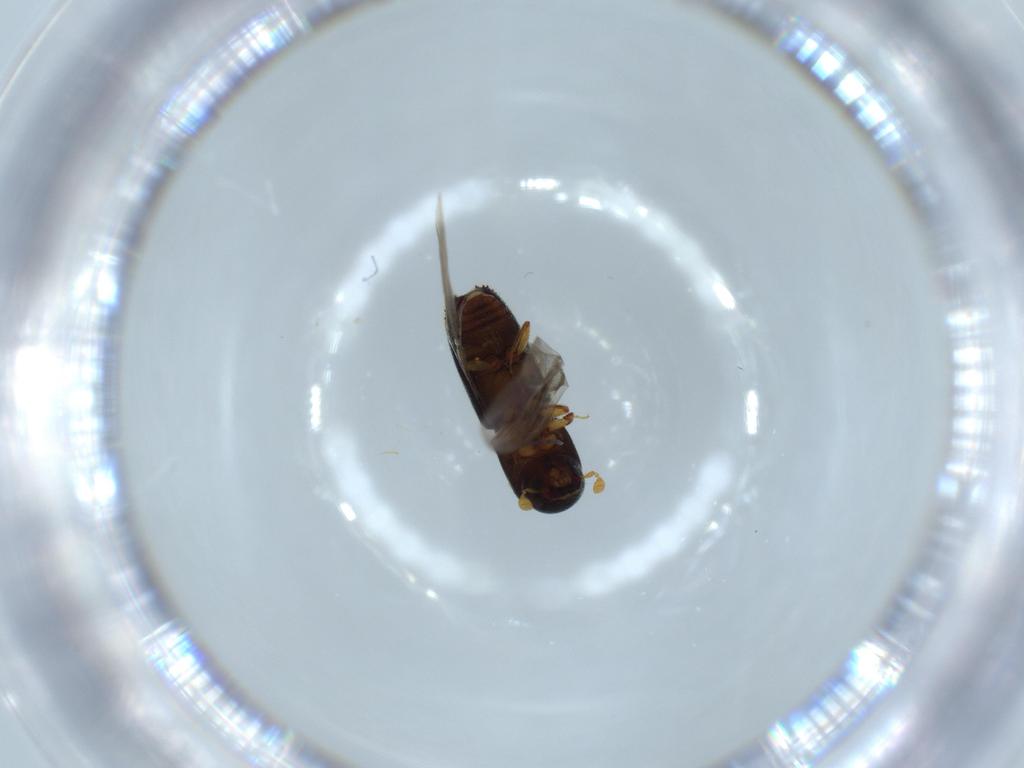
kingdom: Animalia
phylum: Arthropoda
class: Insecta
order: Coleoptera
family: Curculionidae
